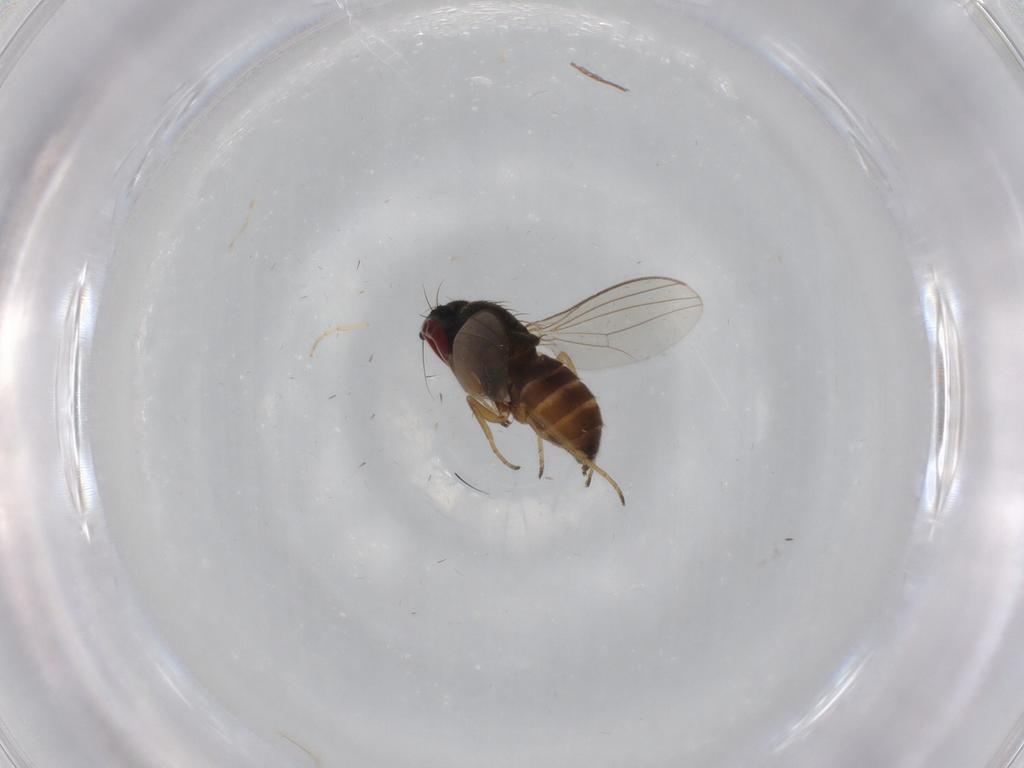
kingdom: Animalia
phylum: Arthropoda
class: Insecta
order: Diptera
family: Dolichopodidae
